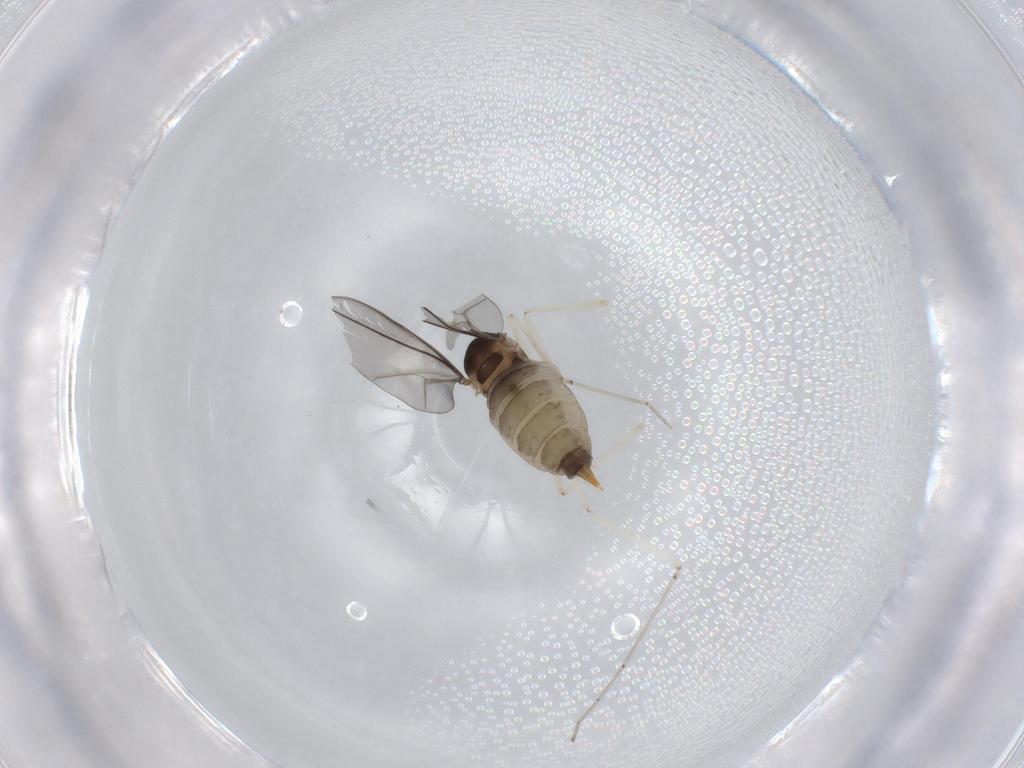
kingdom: Animalia
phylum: Arthropoda
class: Insecta
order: Diptera
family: Cecidomyiidae
